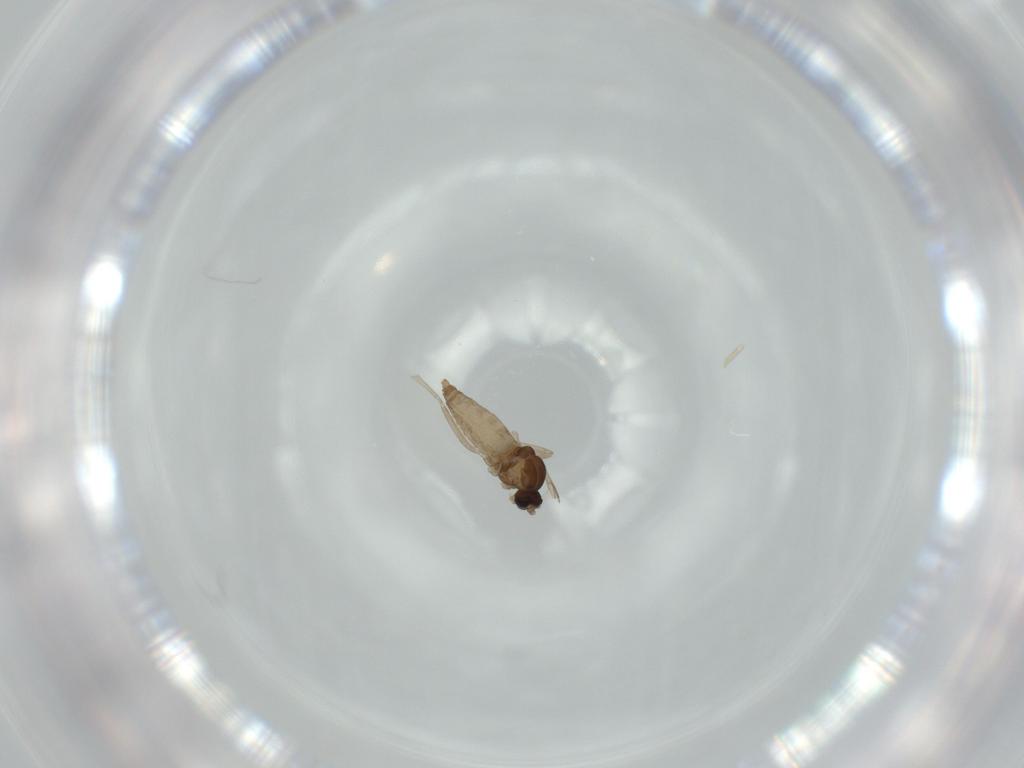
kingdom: Animalia
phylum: Arthropoda
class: Insecta
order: Diptera
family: Cecidomyiidae
